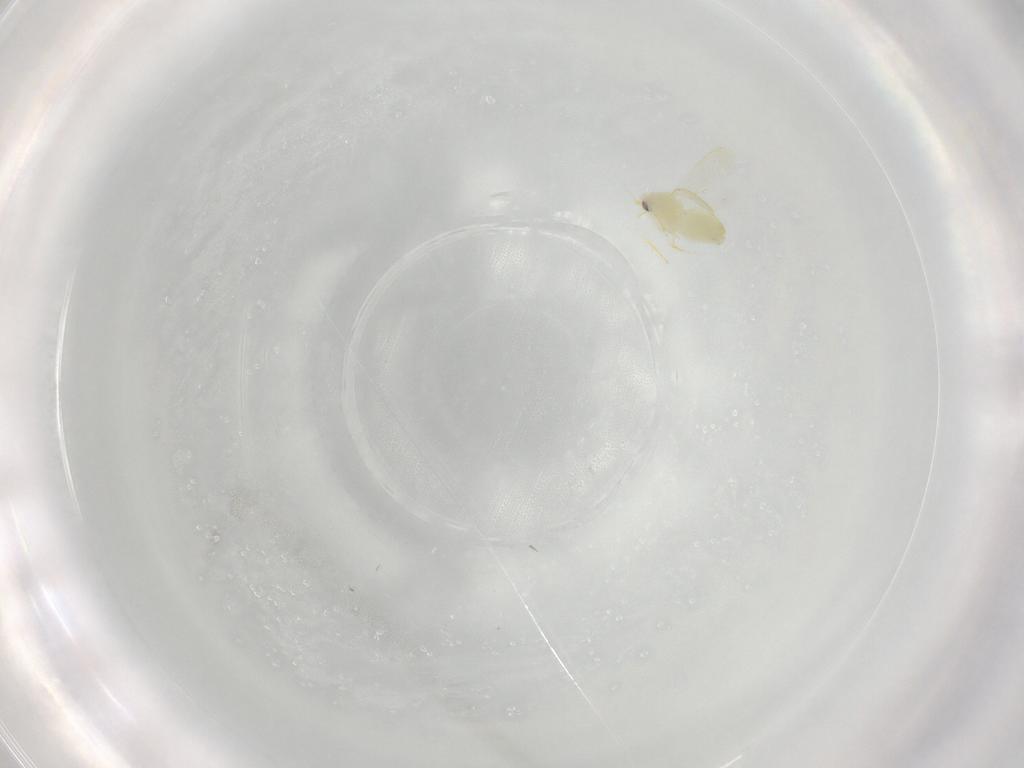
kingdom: Animalia
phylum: Arthropoda
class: Insecta
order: Hemiptera
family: Aleyrodidae
